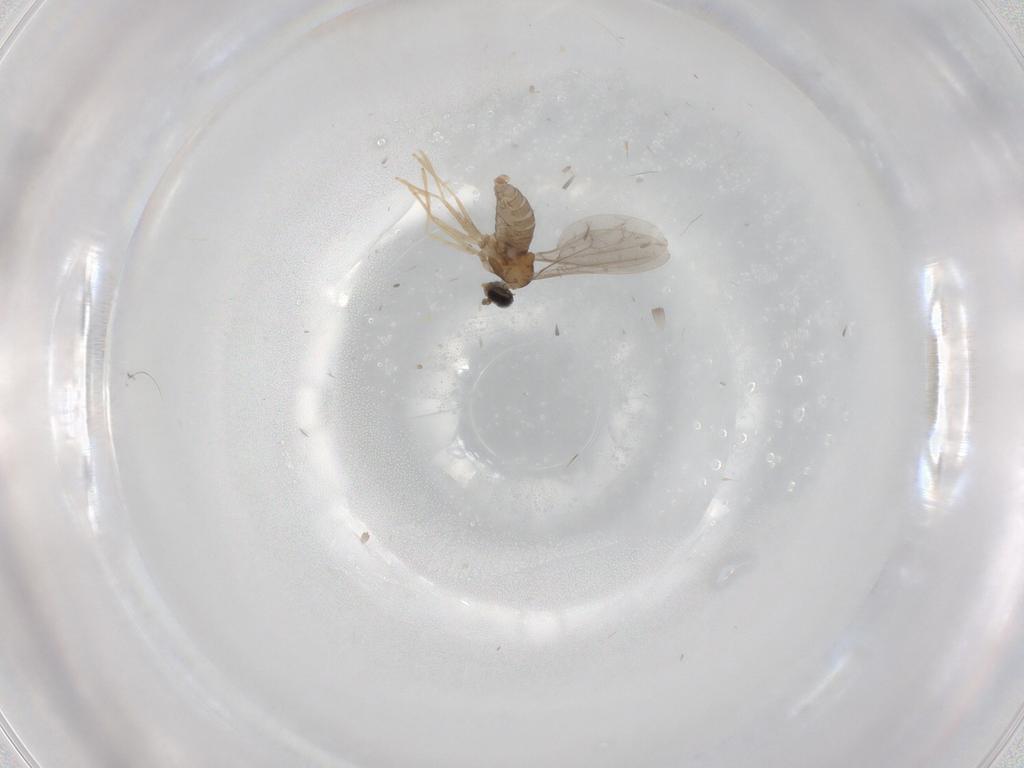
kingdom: Animalia
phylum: Arthropoda
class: Insecta
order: Diptera
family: Cecidomyiidae
